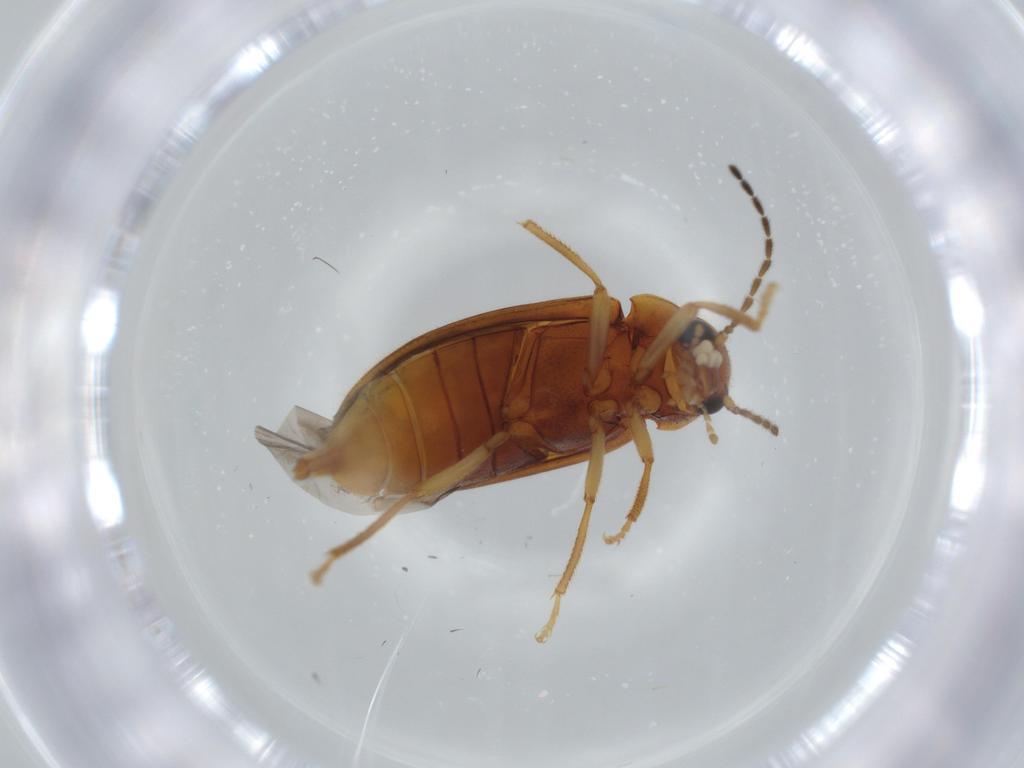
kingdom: Animalia
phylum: Arthropoda
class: Insecta
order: Coleoptera
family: Ptilodactylidae
